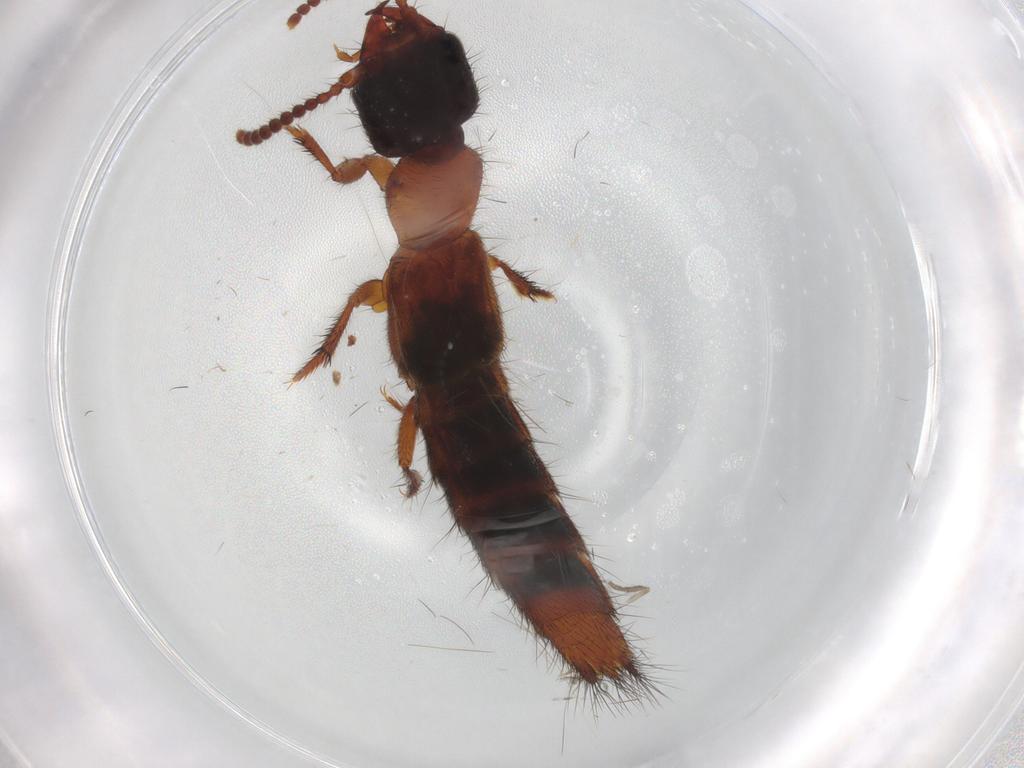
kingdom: Animalia
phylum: Arthropoda
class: Insecta
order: Coleoptera
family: Staphylinidae
